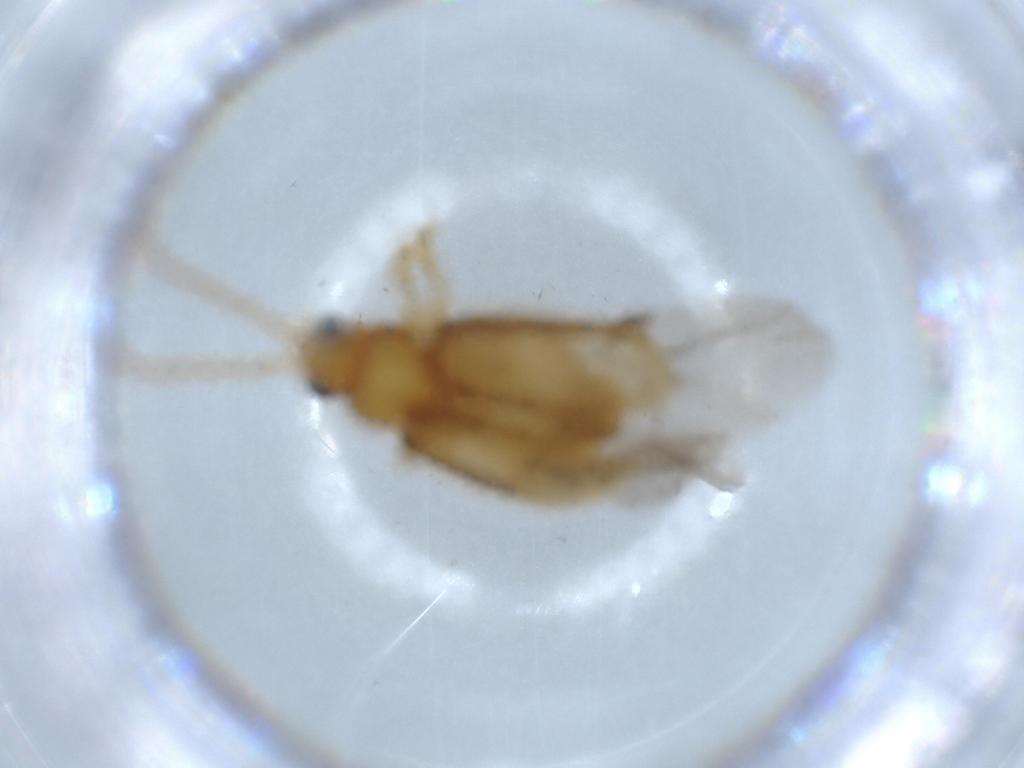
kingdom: Animalia
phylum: Arthropoda
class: Insecta
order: Coleoptera
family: Chrysomelidae
